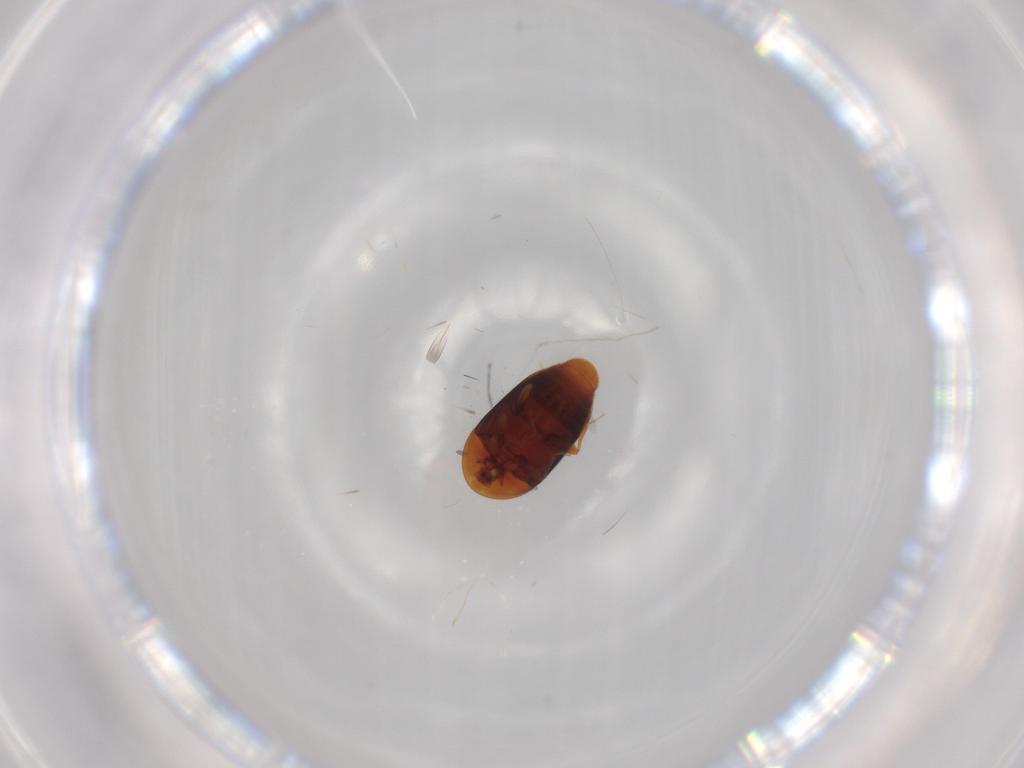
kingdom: Animalia
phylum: Arthropoda
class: Insecta
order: Coleoptera
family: Corylophidae
